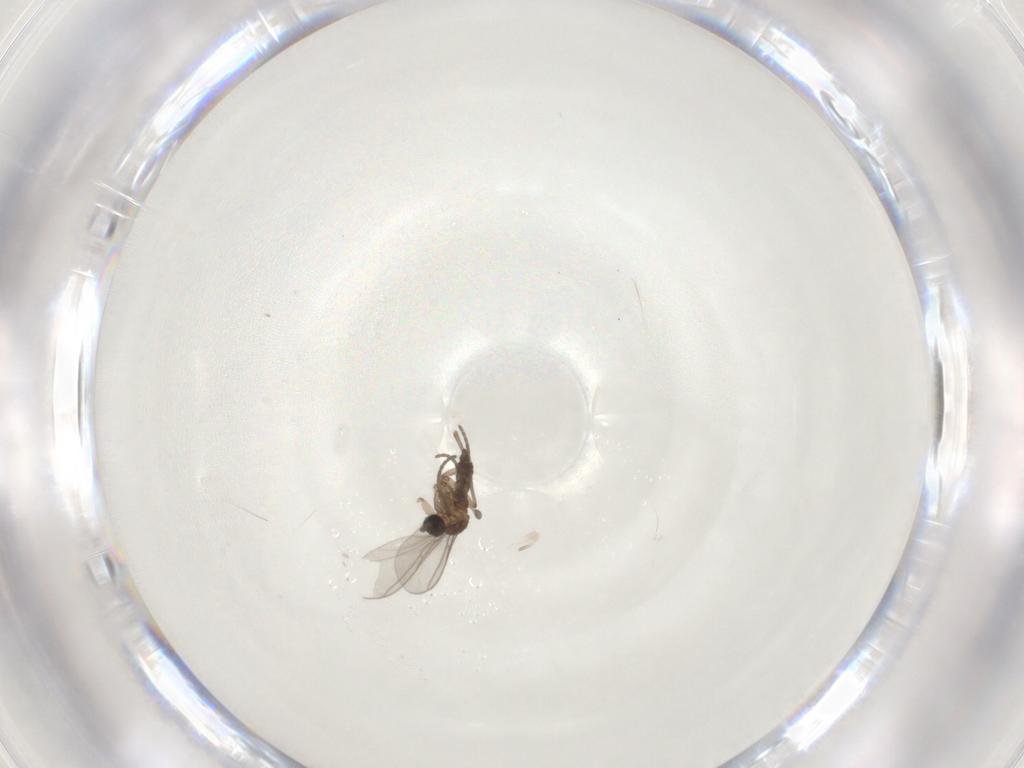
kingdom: Animalia
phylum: Arthropoda
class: Insecta
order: Diptera
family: Sciaridae
